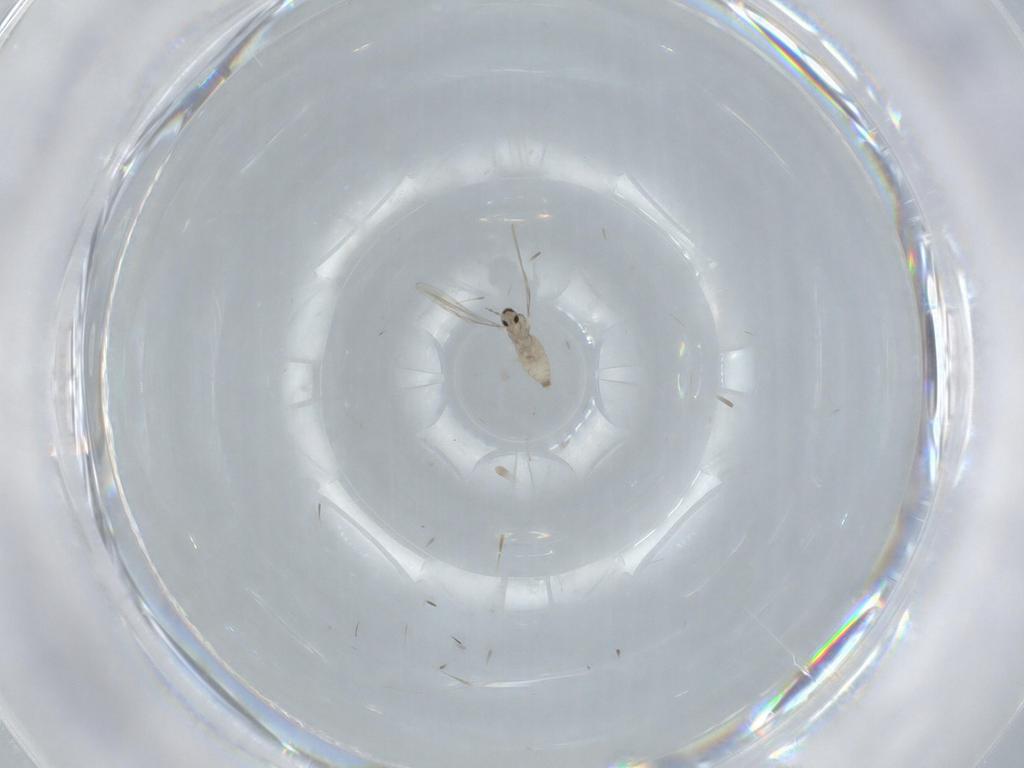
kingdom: Animalia
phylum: Arthropoda
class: Insecta
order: Diptera
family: Cecidomyiidae
